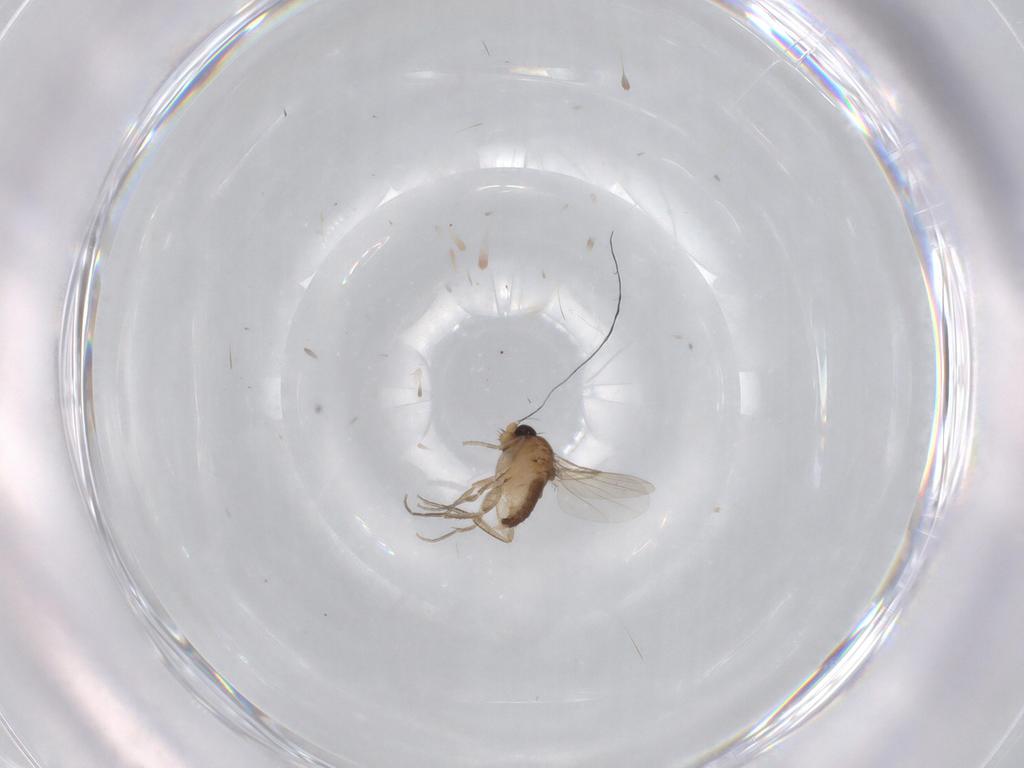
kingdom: Animalia
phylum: Arthropoda
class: Insecta
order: Diptera
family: Phoridae
